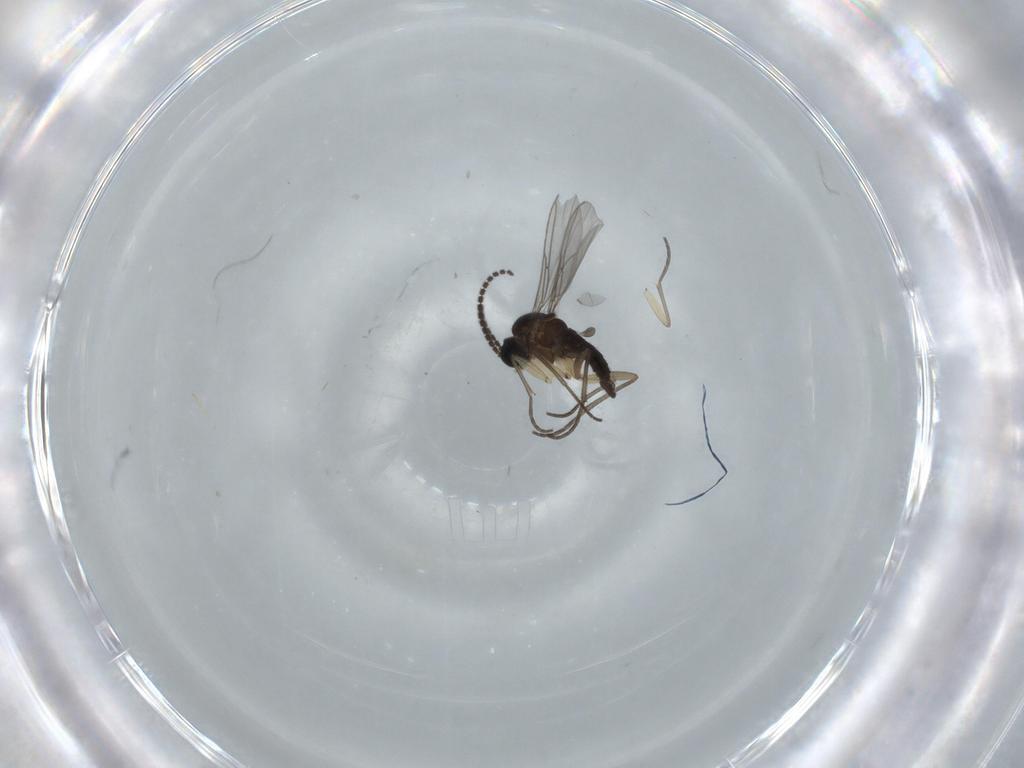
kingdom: Animalia
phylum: Arthropoda
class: Insecta
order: Diptera
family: Sciaridae
